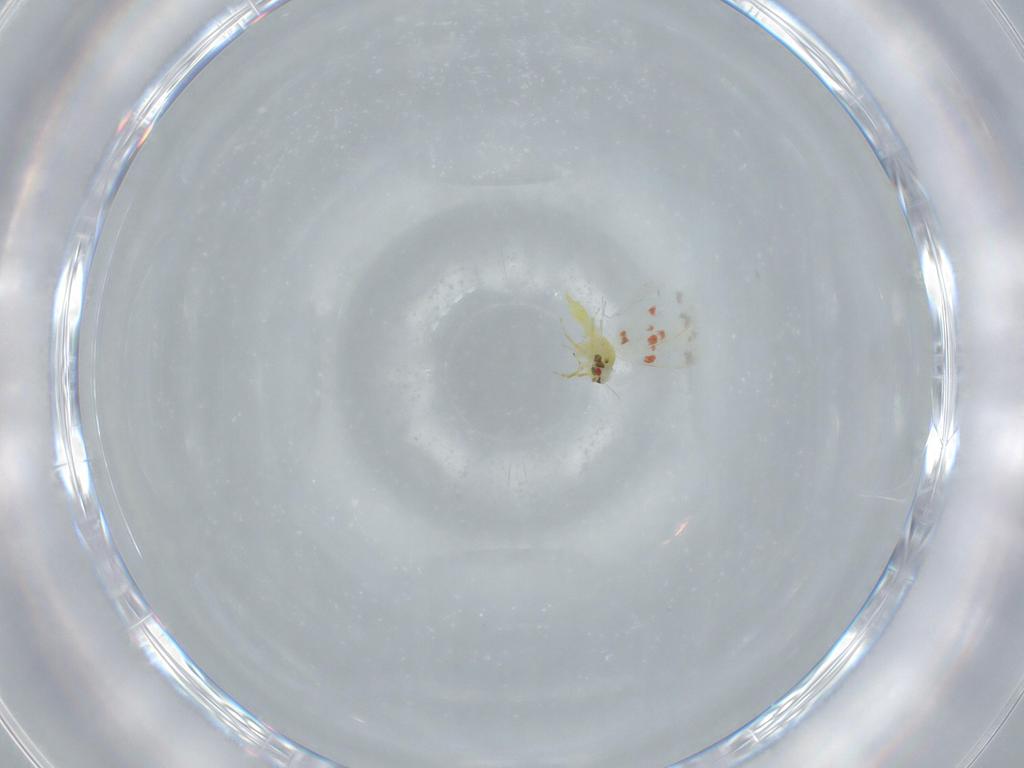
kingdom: Animalia
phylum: Arthropoda
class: Insecta
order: Hemiptera
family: Aleyrodidae
